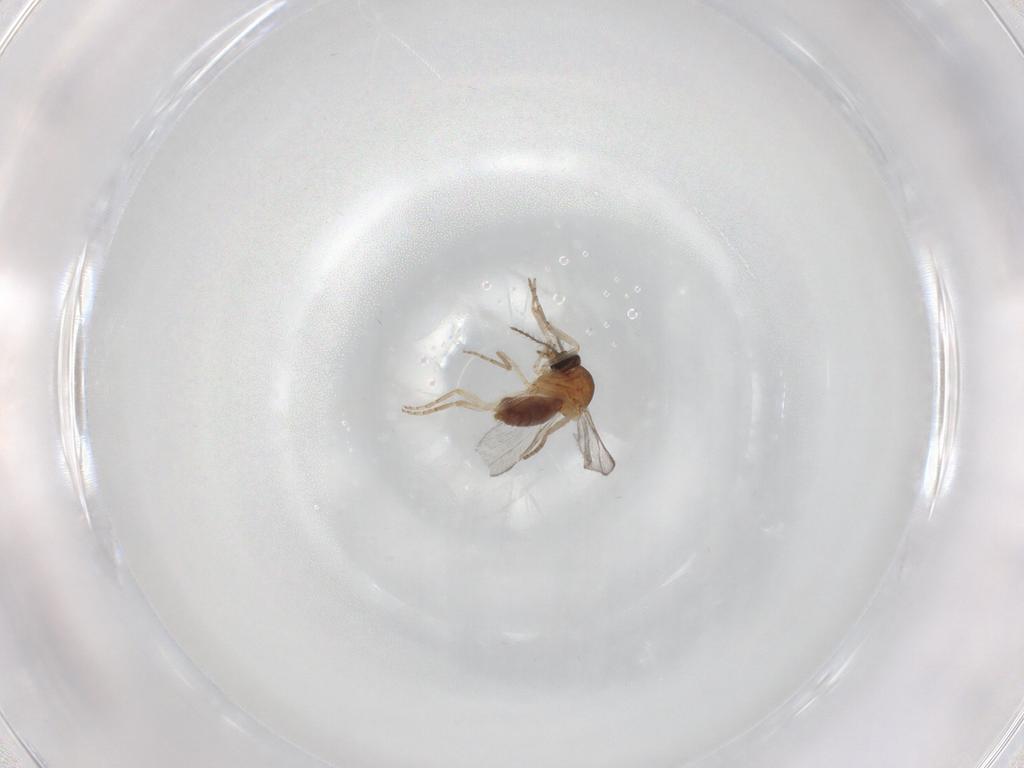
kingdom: Animalia
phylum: Arthropoda
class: Insecta
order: Diptera
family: Ceratopogonidae
